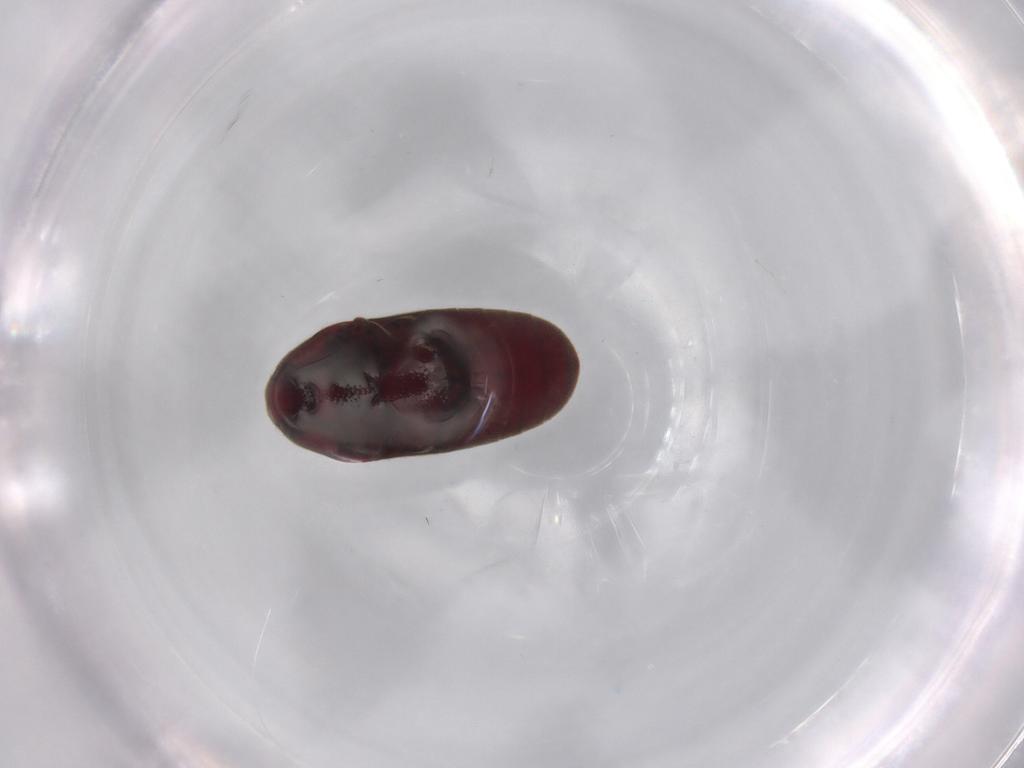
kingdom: Animalia
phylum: Arthropoda
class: Insecta
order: Coleoptera
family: Throscidae
